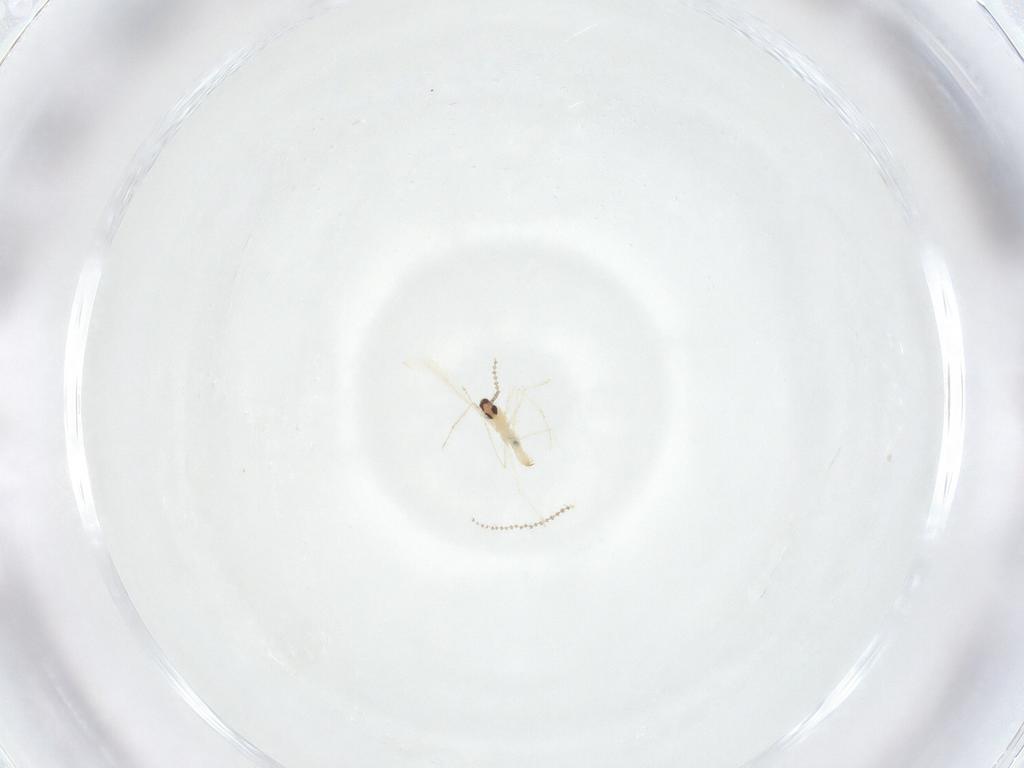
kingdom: Animalia
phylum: Arthropoda
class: Insecta
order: Diptera
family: Cecidomyiidae
